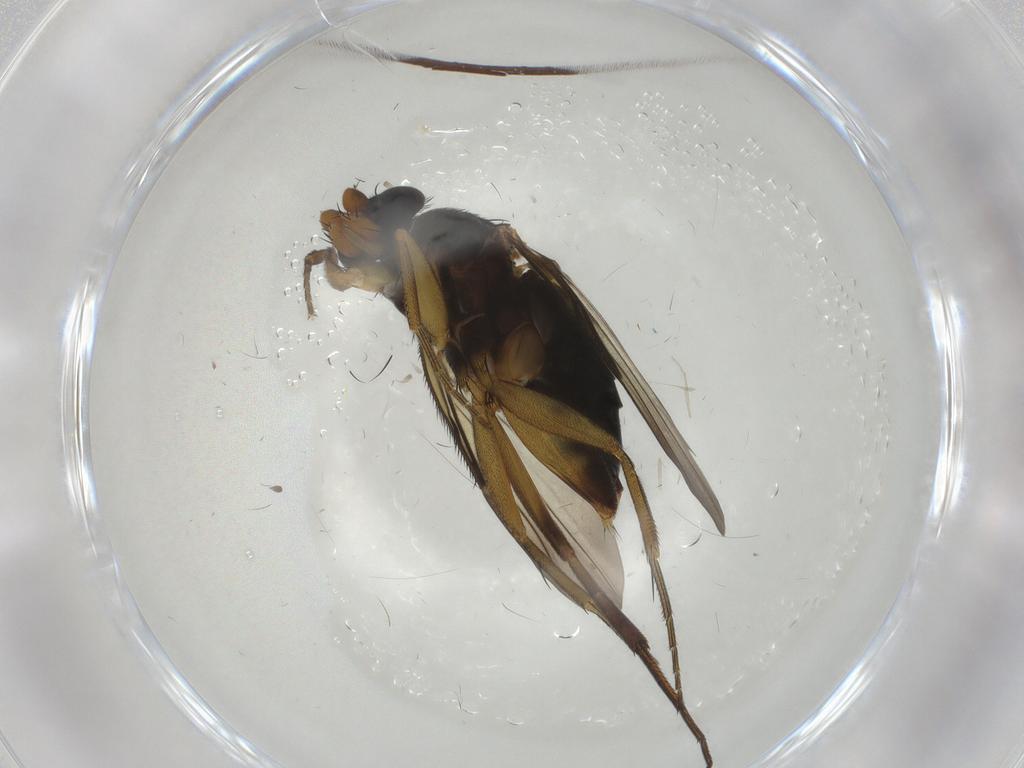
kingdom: Animalia
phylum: Arthropoda
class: Insecta
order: Diptera
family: Phoridae
